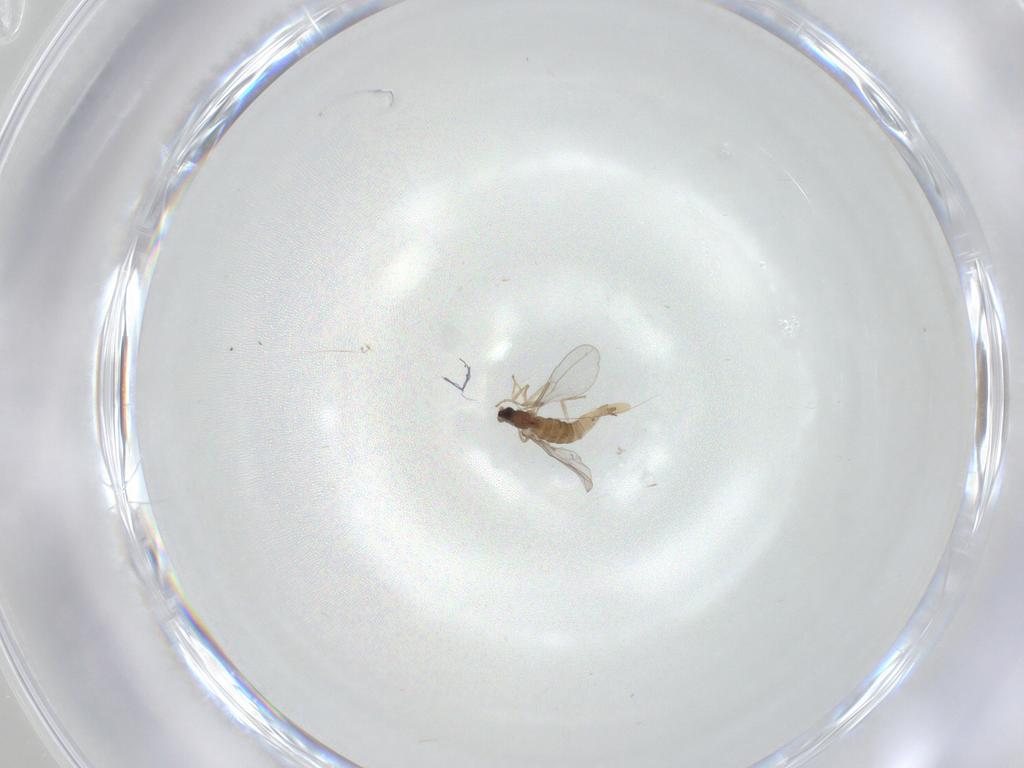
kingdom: Animalia
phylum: Arthropoda
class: Insecta
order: Diptera
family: Cecidomyiidae
